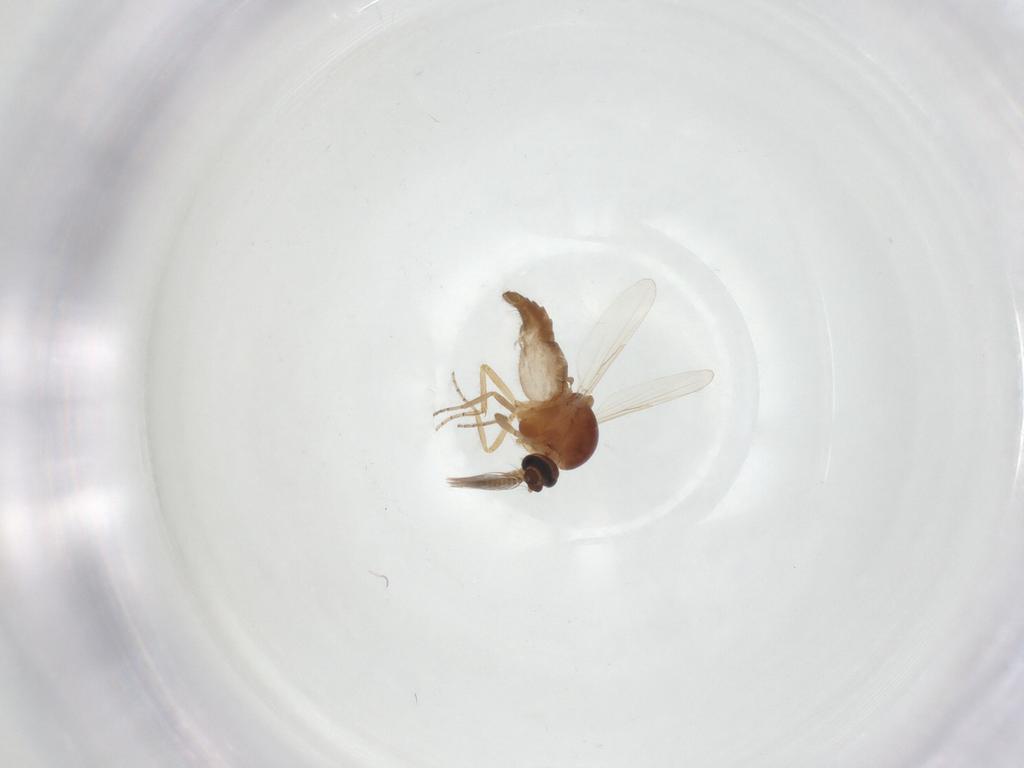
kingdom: Animalia
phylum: Arthropoda
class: Insecta
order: Diptera
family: Ceratopogonidae
